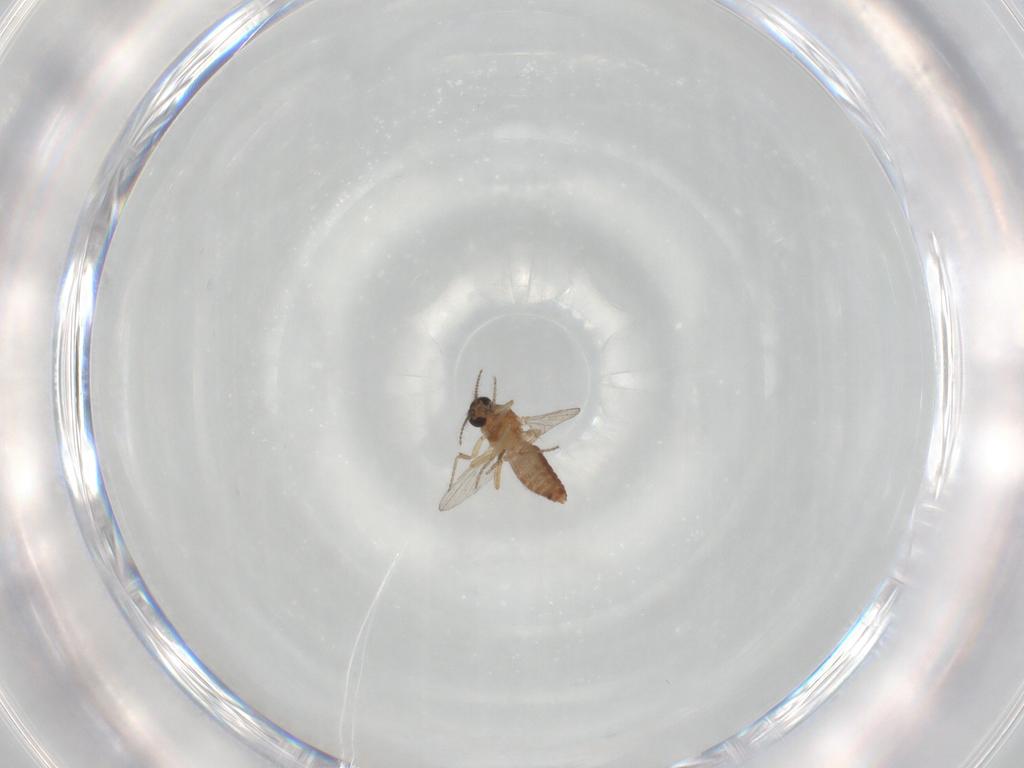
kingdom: Animalia
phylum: Arthropoda
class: Insecta
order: Diptera
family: Ceratopogonidae
